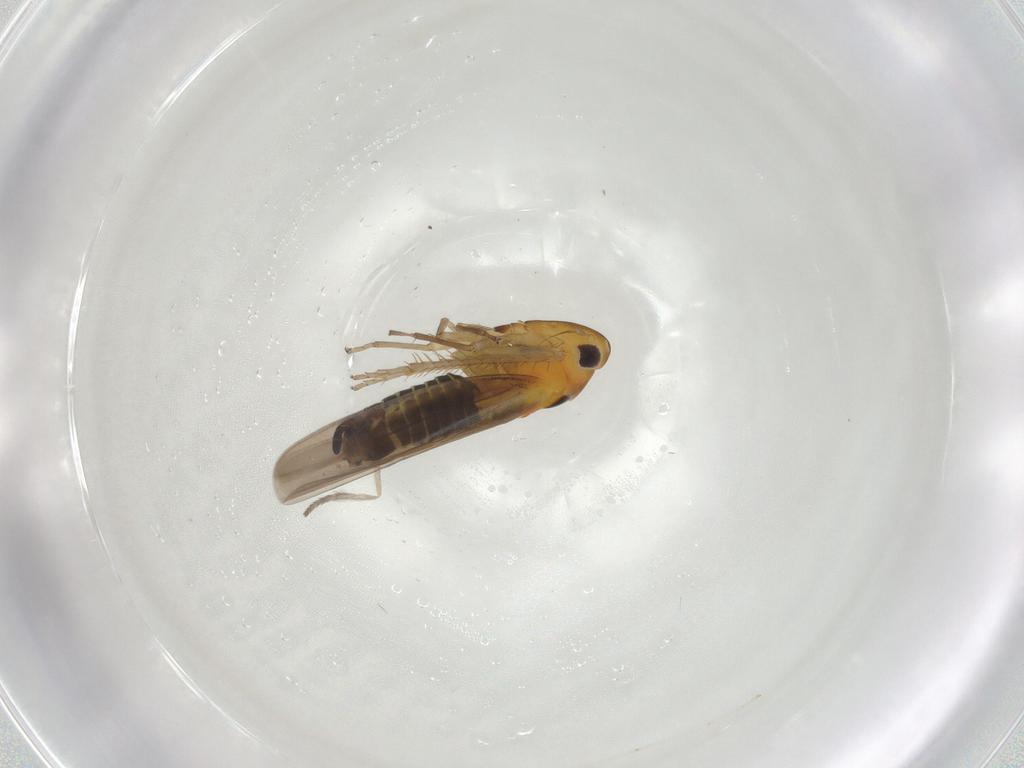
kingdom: Animalia
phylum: Arthropoda
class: Insecta
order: Hemiptera
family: Cicadellidae
